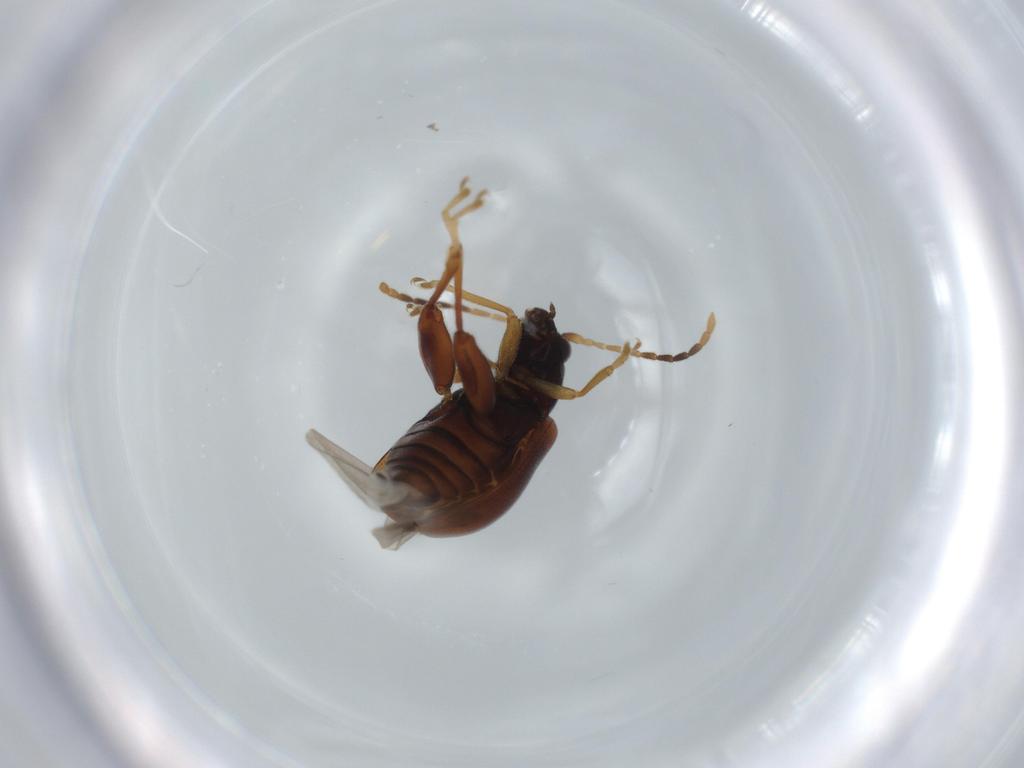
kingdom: Animalia
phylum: Arthropoda
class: Insecta
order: Coleoptera
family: Chrysomelidae
